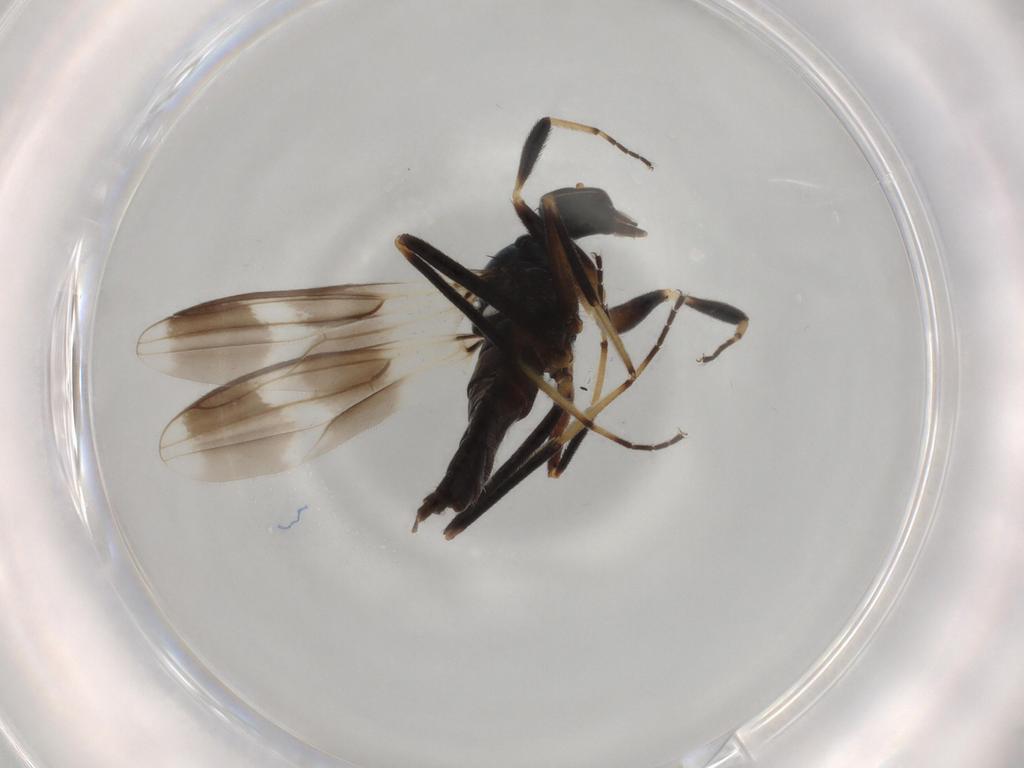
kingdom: Animalia
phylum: Arthropoda
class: Insecta
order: Diptera
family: Hybotidae
